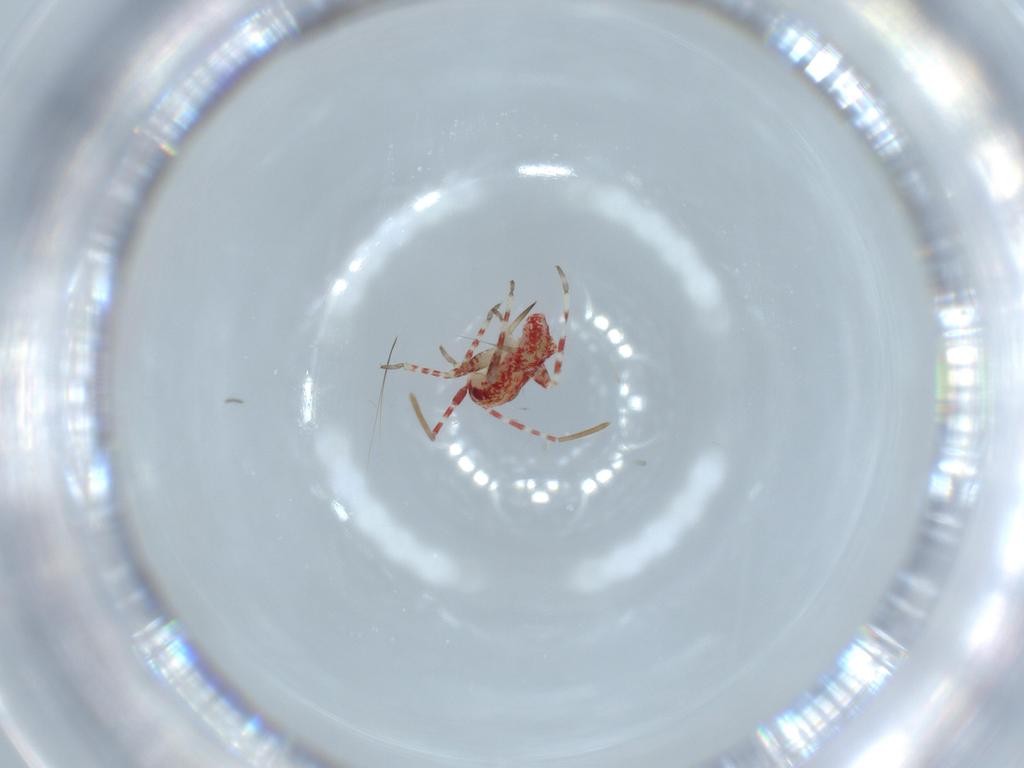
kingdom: Animalia
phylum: Arthropoda
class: Insecta
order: Hemiptera
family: Miridae
